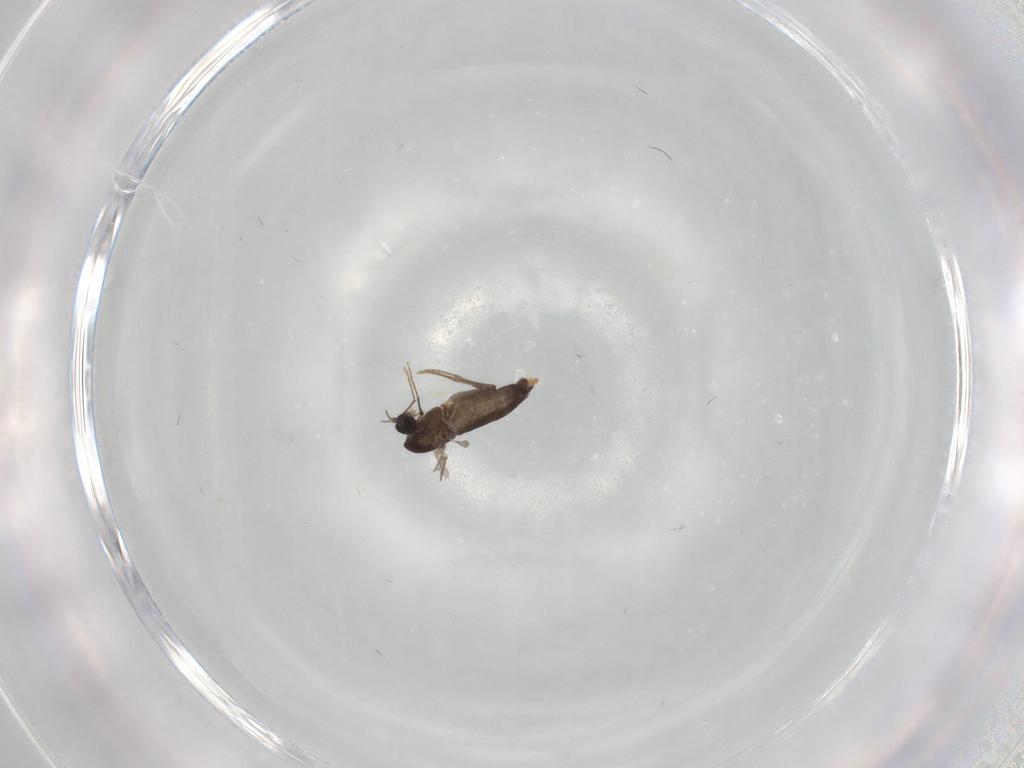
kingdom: Animalia
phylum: Arthropoda
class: Insecta
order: Diptera
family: Chironomidae
